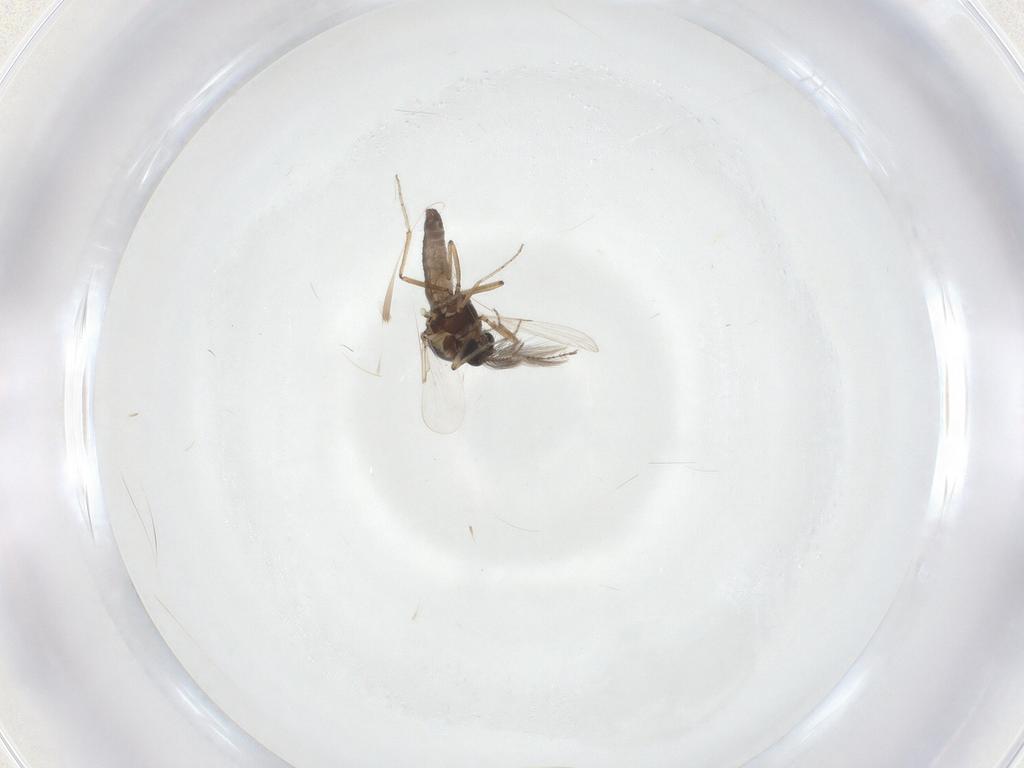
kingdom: Animalia
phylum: Arthropoda
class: Insecta
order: Diptera
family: Ceratopogonidae
